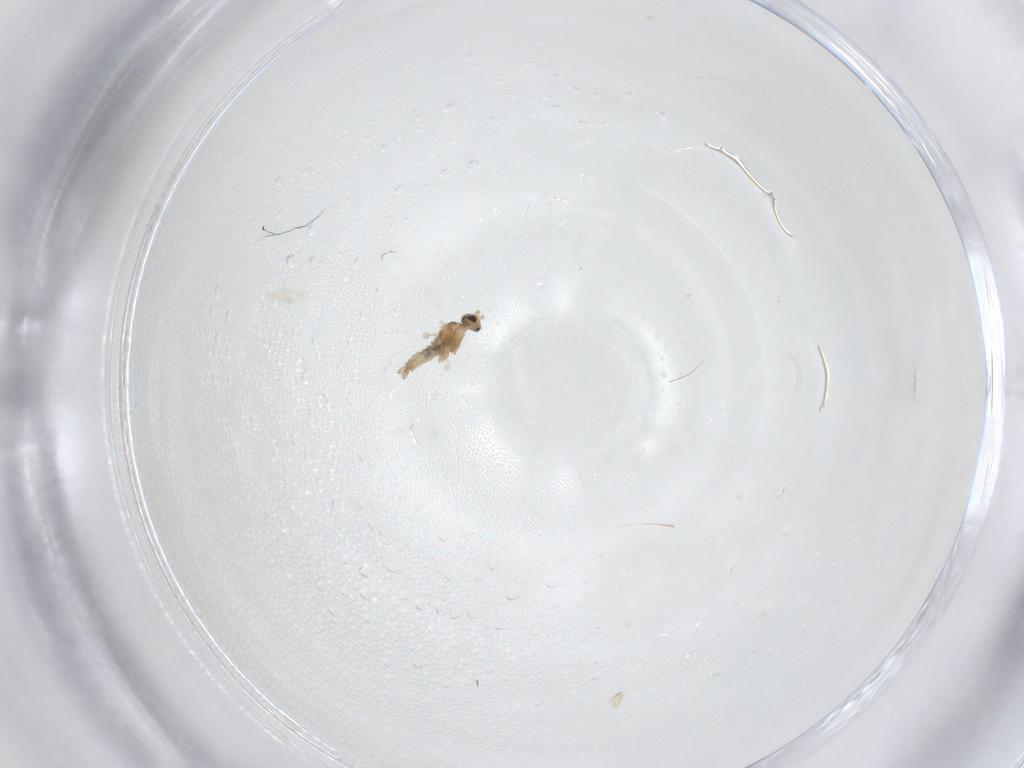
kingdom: Animalia
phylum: Arthropoda
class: Insecta
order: Diptera
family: Cecidomyiidae
